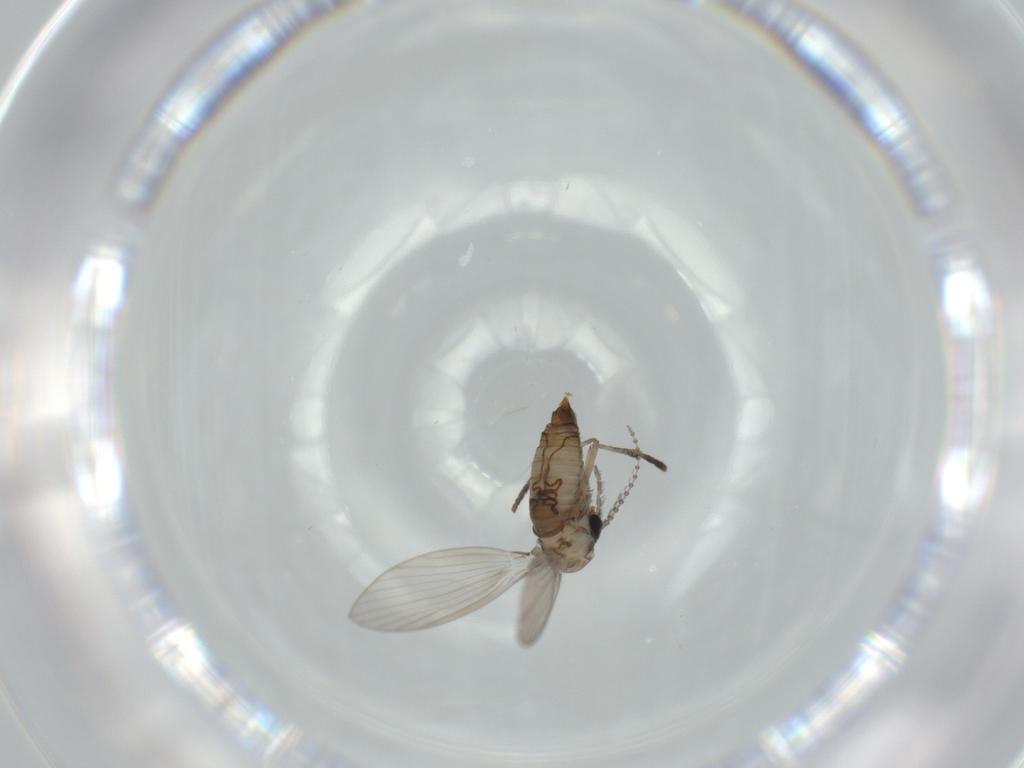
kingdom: Animalia
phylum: Arthropoda
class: Insecta
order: Diptera
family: Psychodidae
